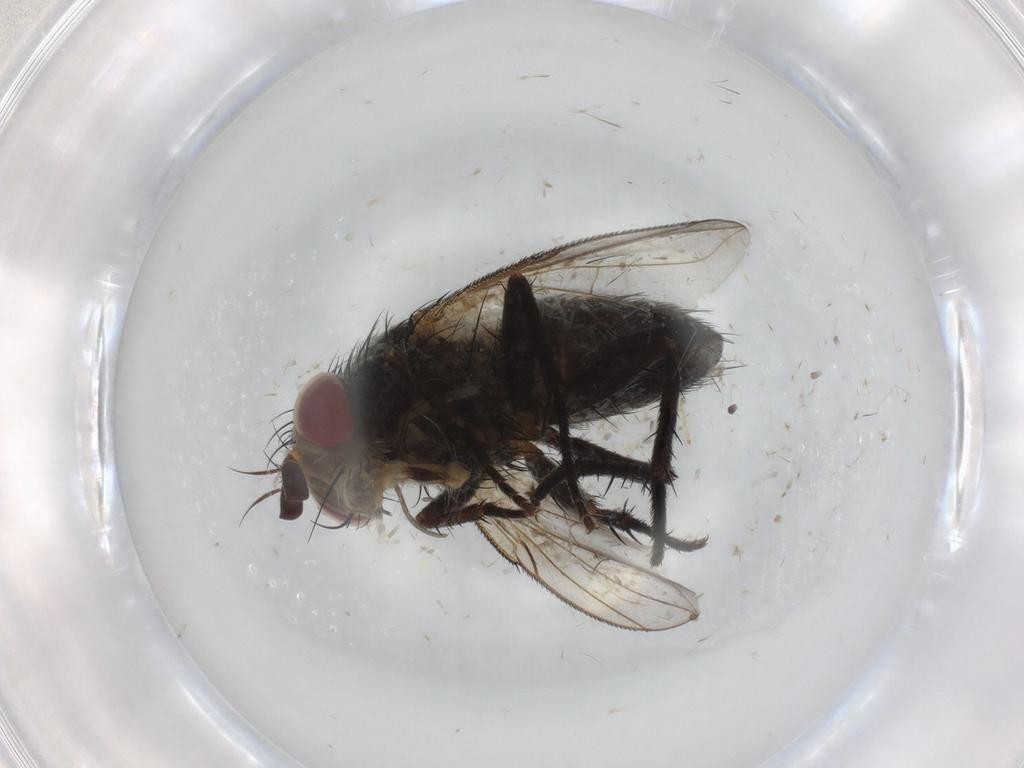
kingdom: Animalia
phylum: Arthropoda
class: Insecta
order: Diptera
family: Tachinidae
